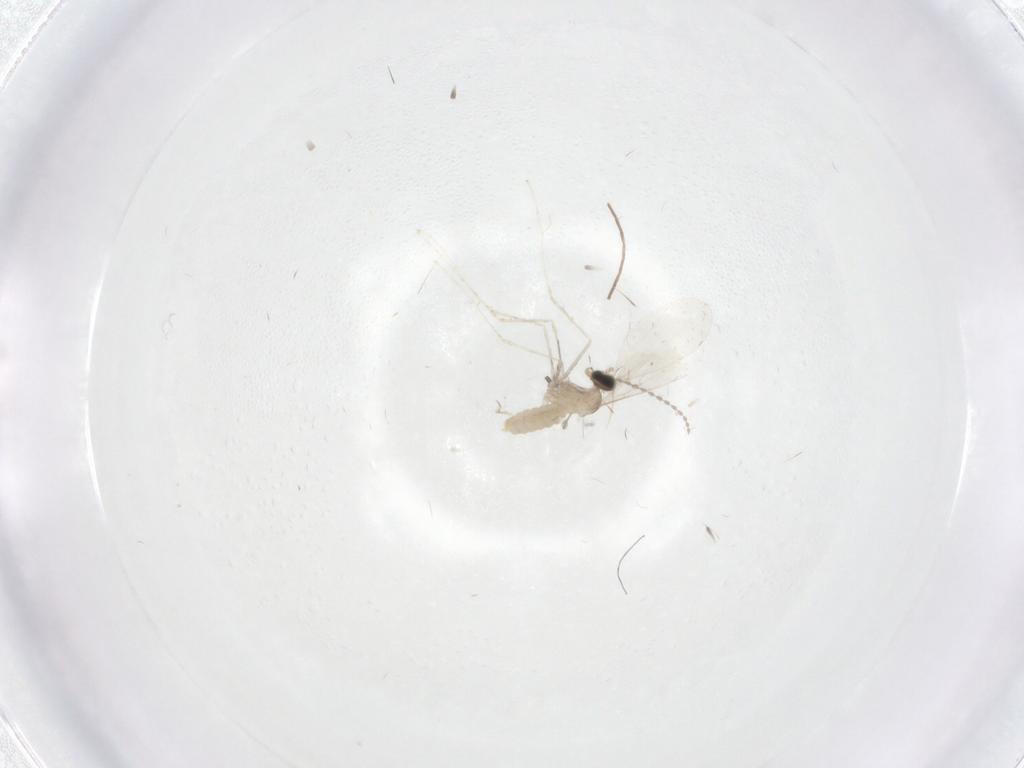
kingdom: Animalia
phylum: Arthropoda
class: Insecta
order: Diptera
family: Cecidomyiidae
